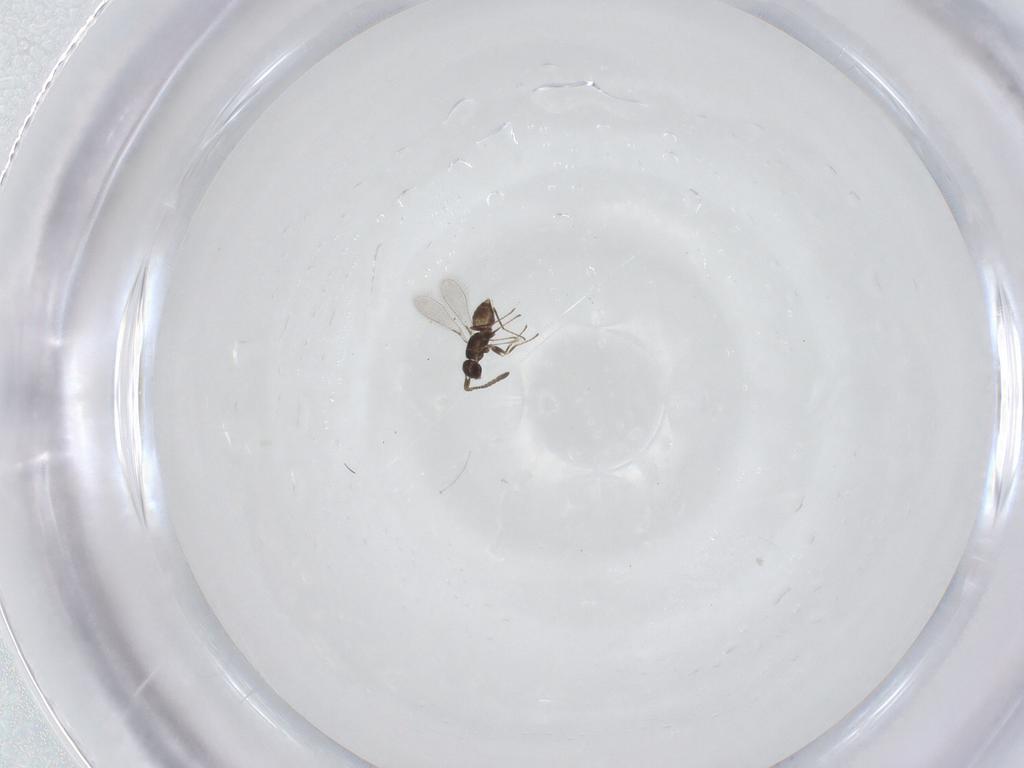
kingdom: Animalia
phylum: Arthropoda
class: Insecta
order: Hymenoptera
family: Mymaridae
